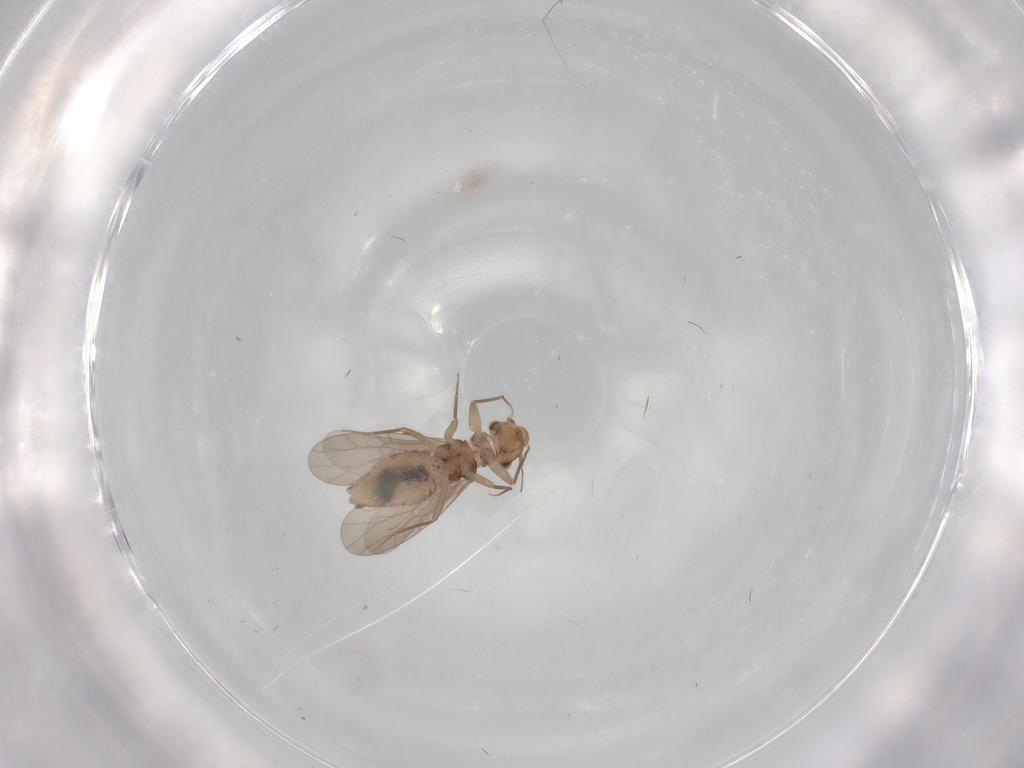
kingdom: Animalia
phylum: Arthropoda
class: Insecta
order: Psocodea
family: Lepidopsocidae
